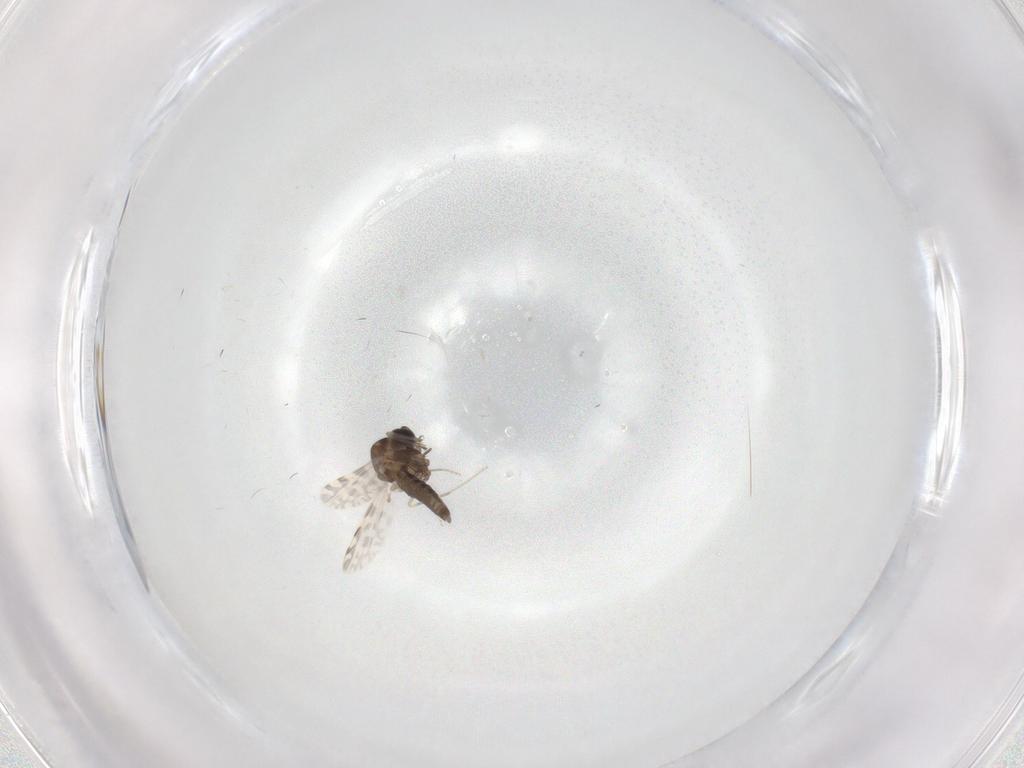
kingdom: Animalia
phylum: Arthropoda
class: Insecta
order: Diptera
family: Ceratopogonidae
